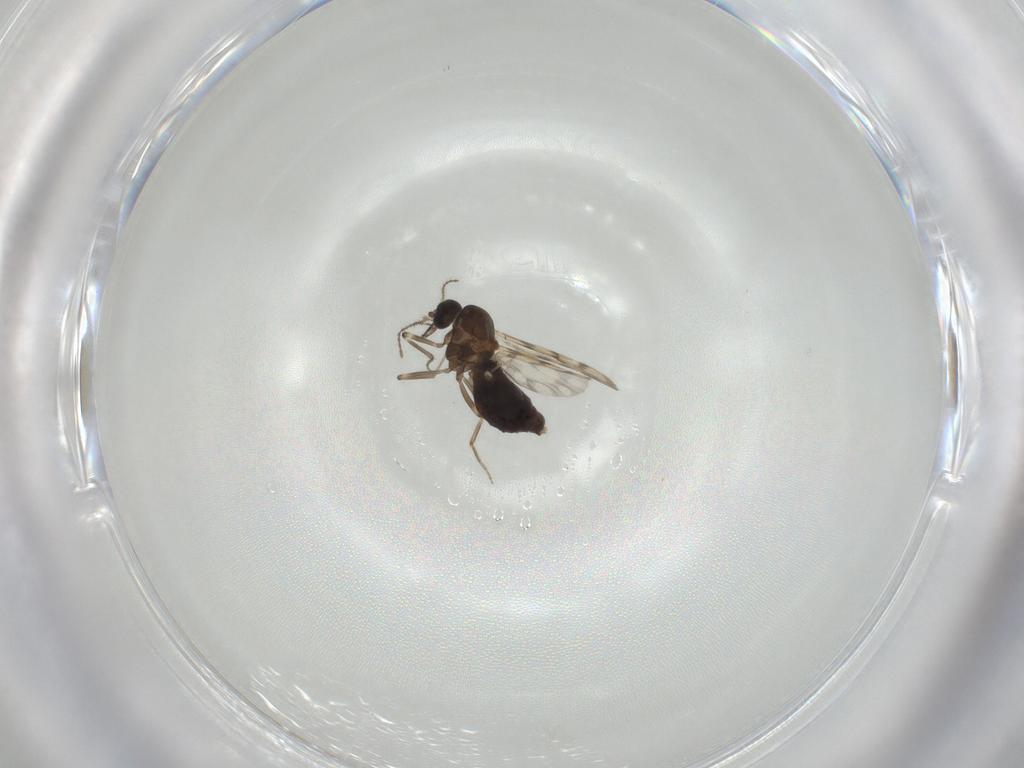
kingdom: Animalia
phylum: Arthropoda
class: Insecta
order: Diptera
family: Ceratopogonidae
